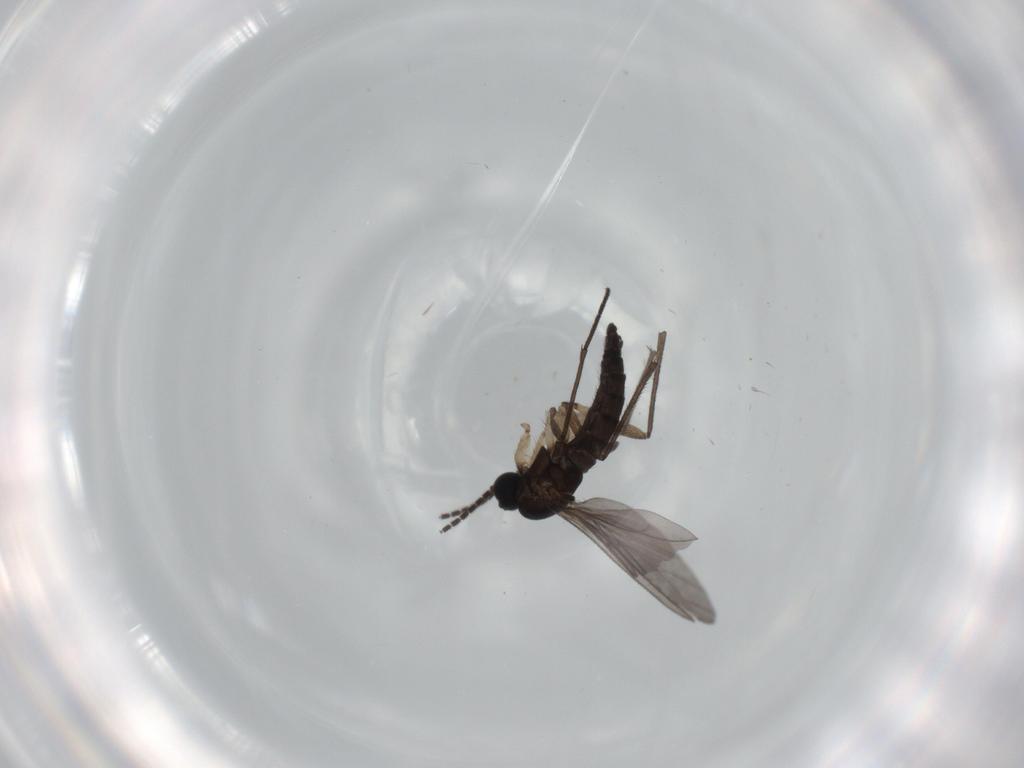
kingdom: Animalia
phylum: Arthropoda
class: Insecta
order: Diptera
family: Sciaridae
